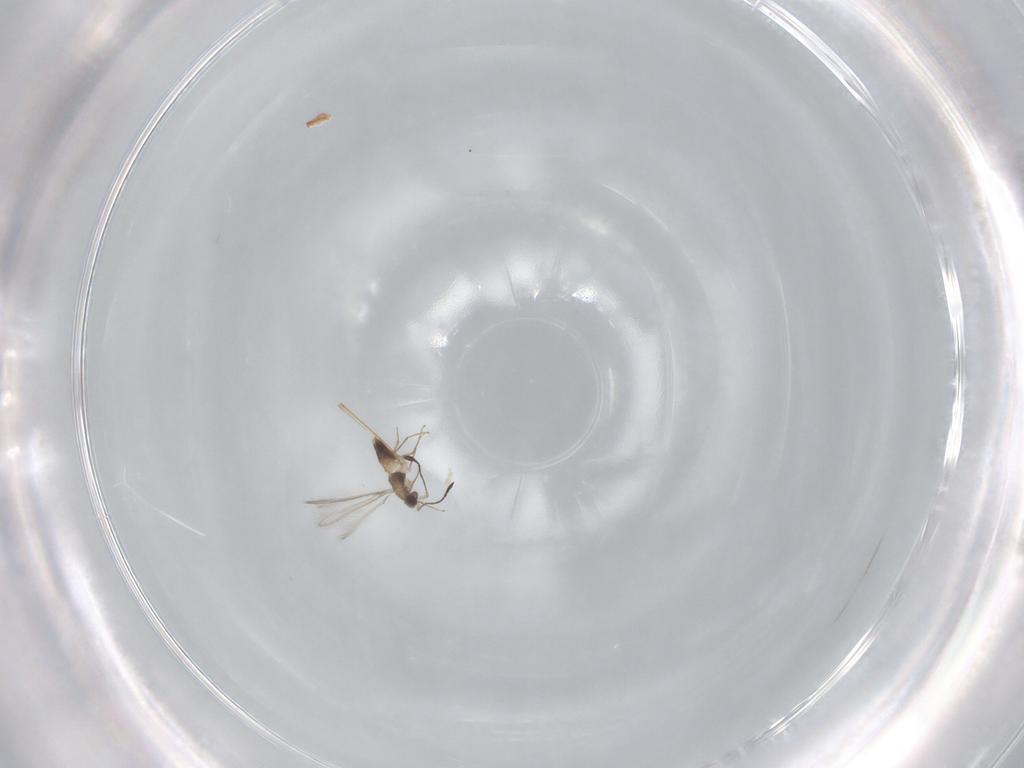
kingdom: Animalia
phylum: Arthropoda
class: Insecta
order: Hymenoptera
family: Mymaridae
